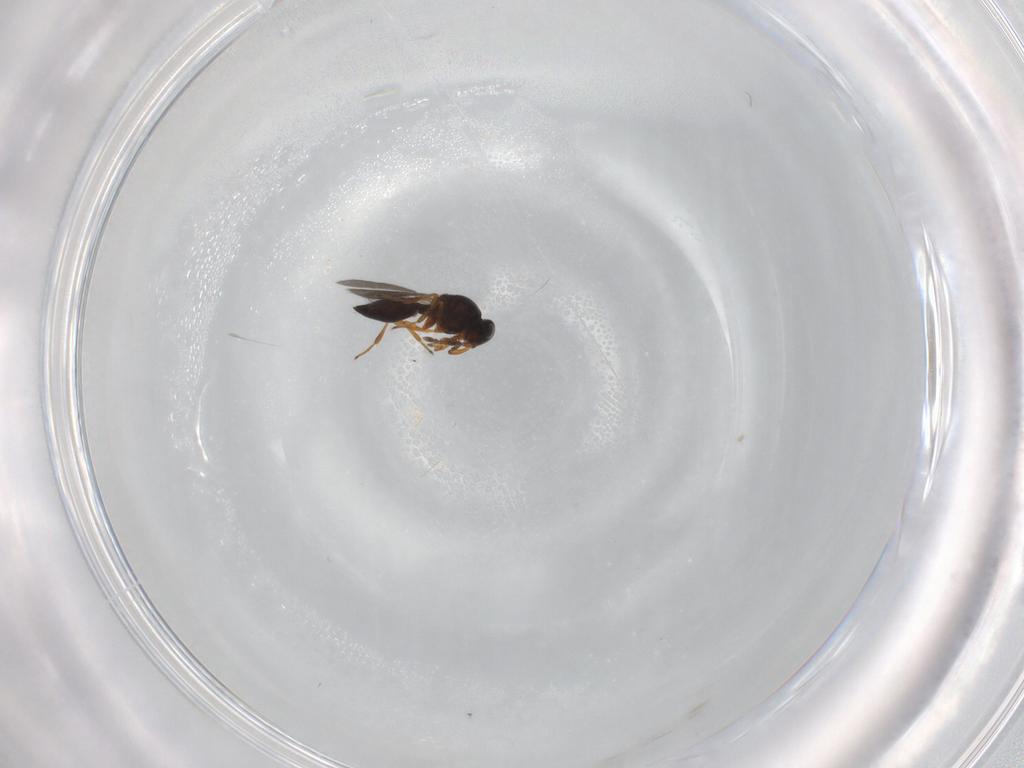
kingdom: Animalia
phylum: Arthropoda
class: Insecta
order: Hymenoptera
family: Platygastridae
